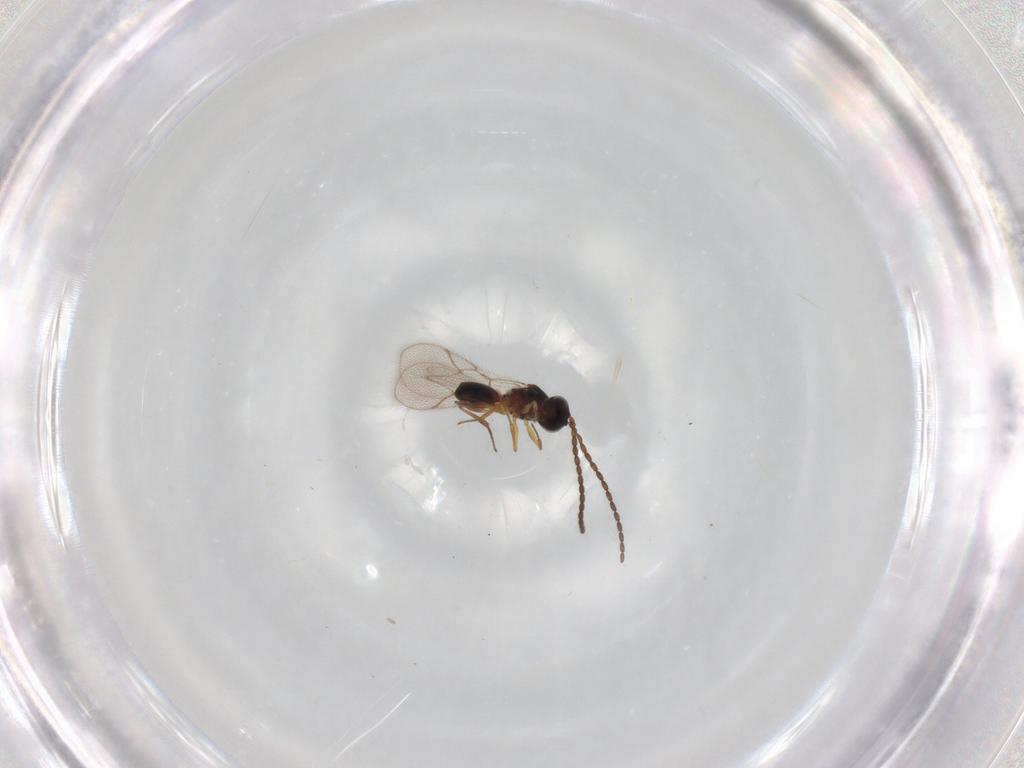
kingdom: Animalia
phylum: Arthropoda
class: Insecta
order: Hymenoptera
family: Figitidae
